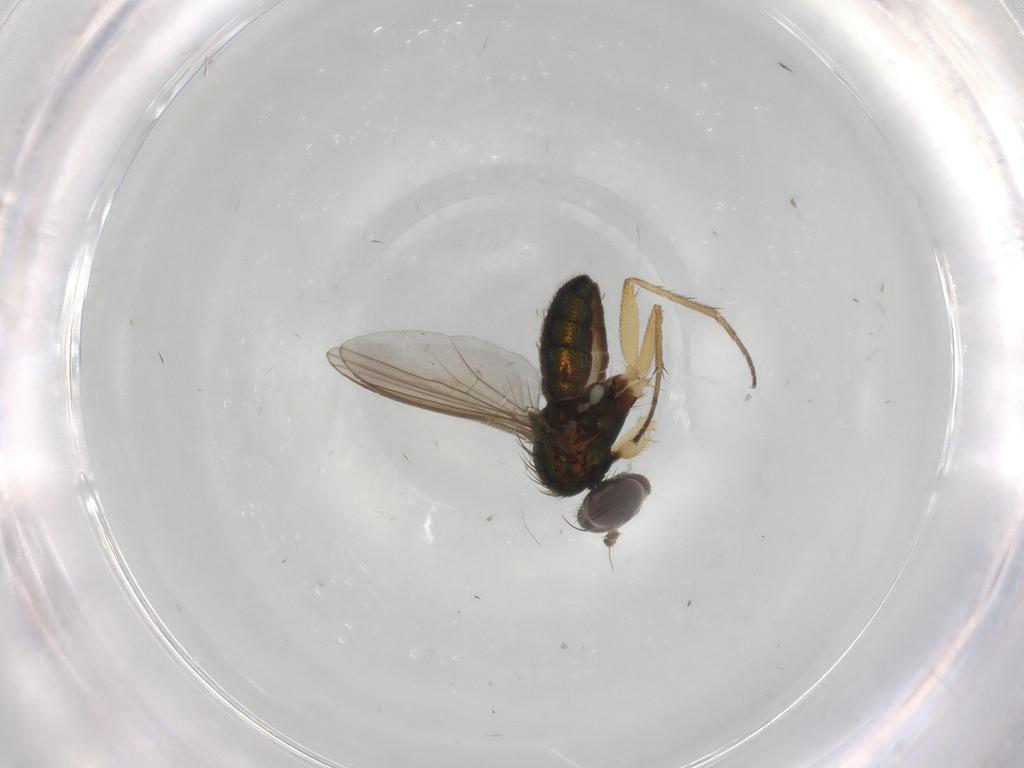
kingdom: Animalia
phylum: Arthropoda
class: Insecta
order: Diptera
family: Dolichopodidae
